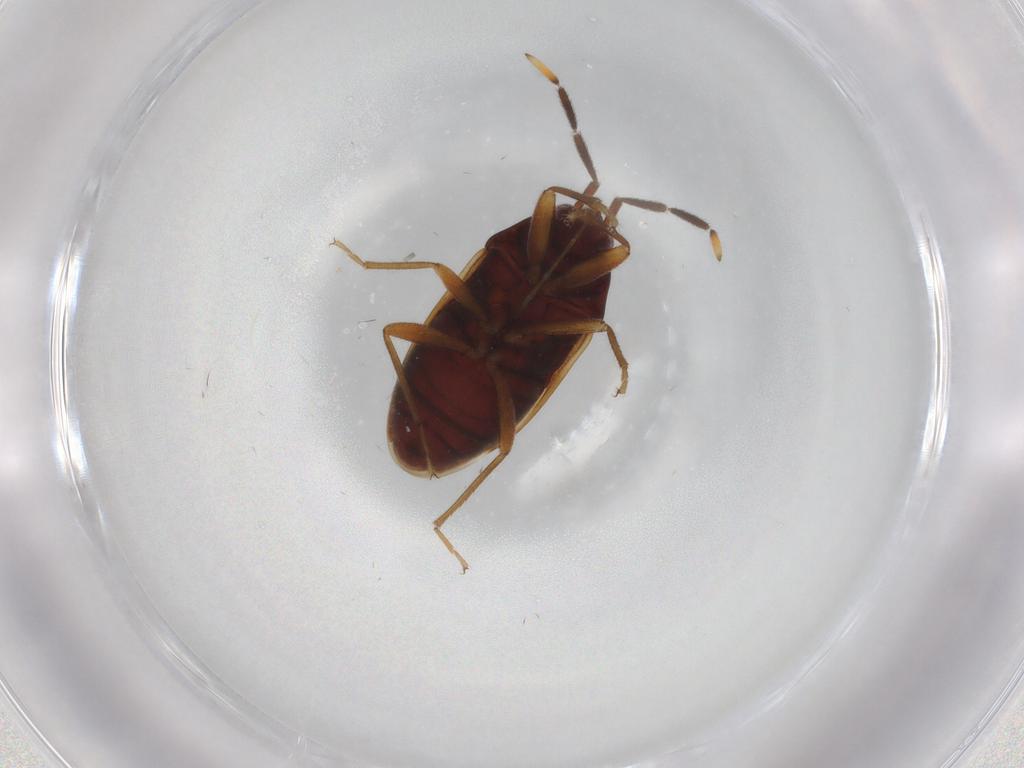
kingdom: Animalia
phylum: Arthropoda
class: Insecta
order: Hemiptera
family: Rhyparochromidae
